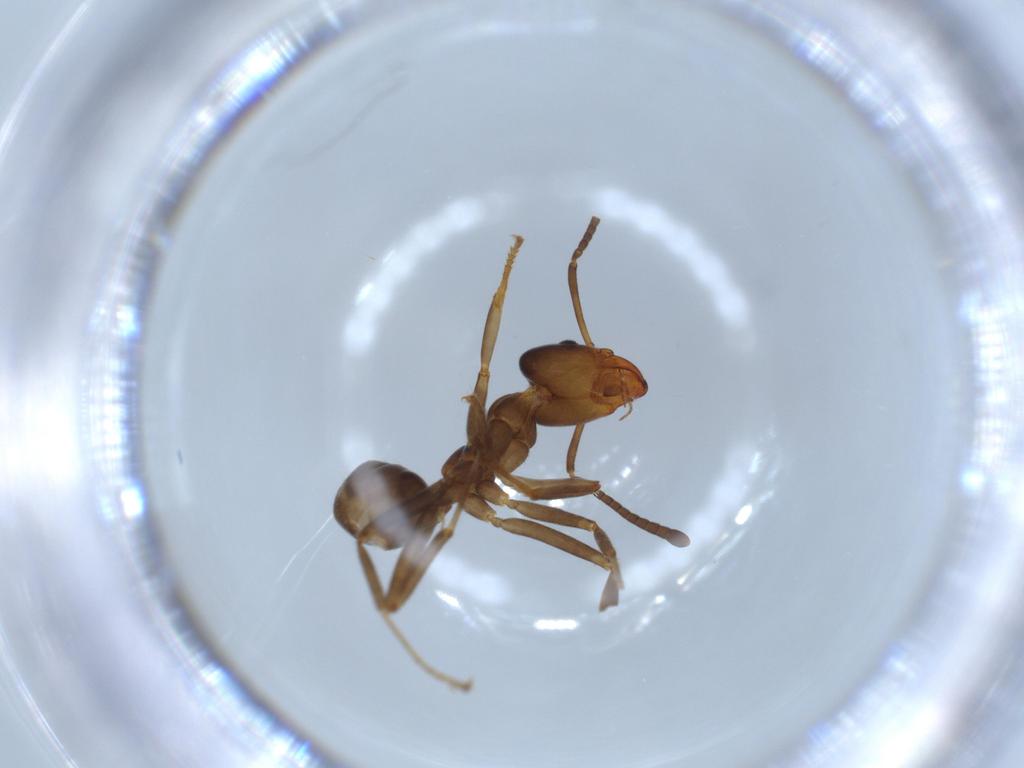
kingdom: Animalia
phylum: Arthropoda
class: Insecta
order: Hymenoptera
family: Formicidae
